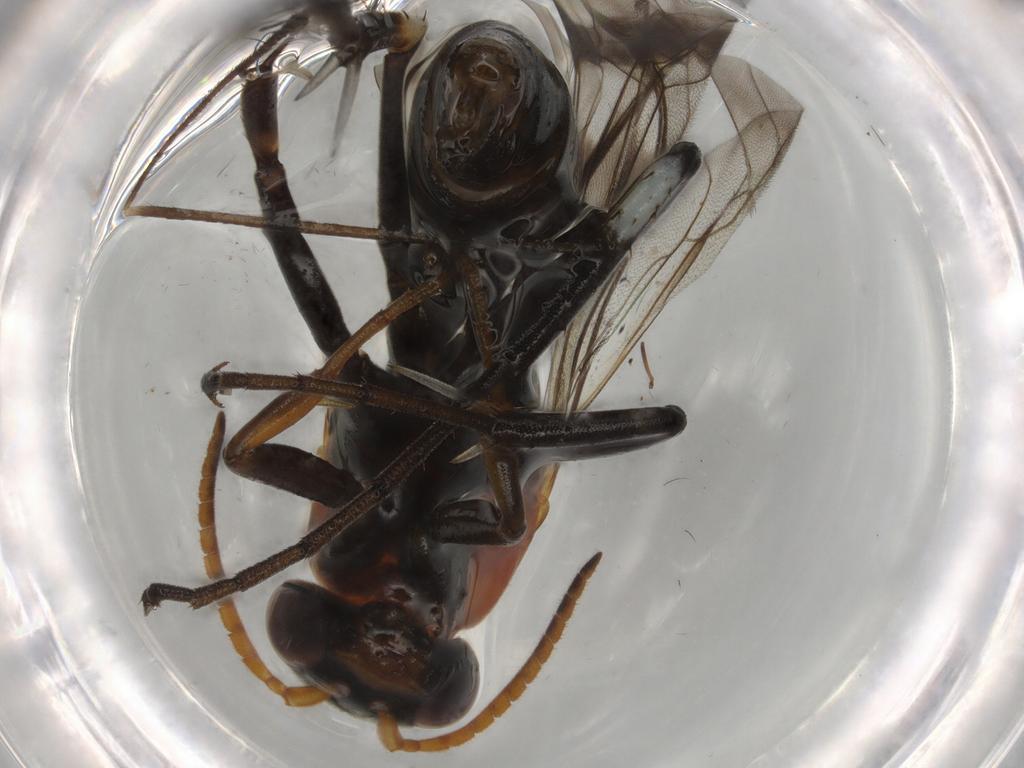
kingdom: Animalia
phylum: Arthropoda
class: Insecta
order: Hymenoptera
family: Pompilidae
